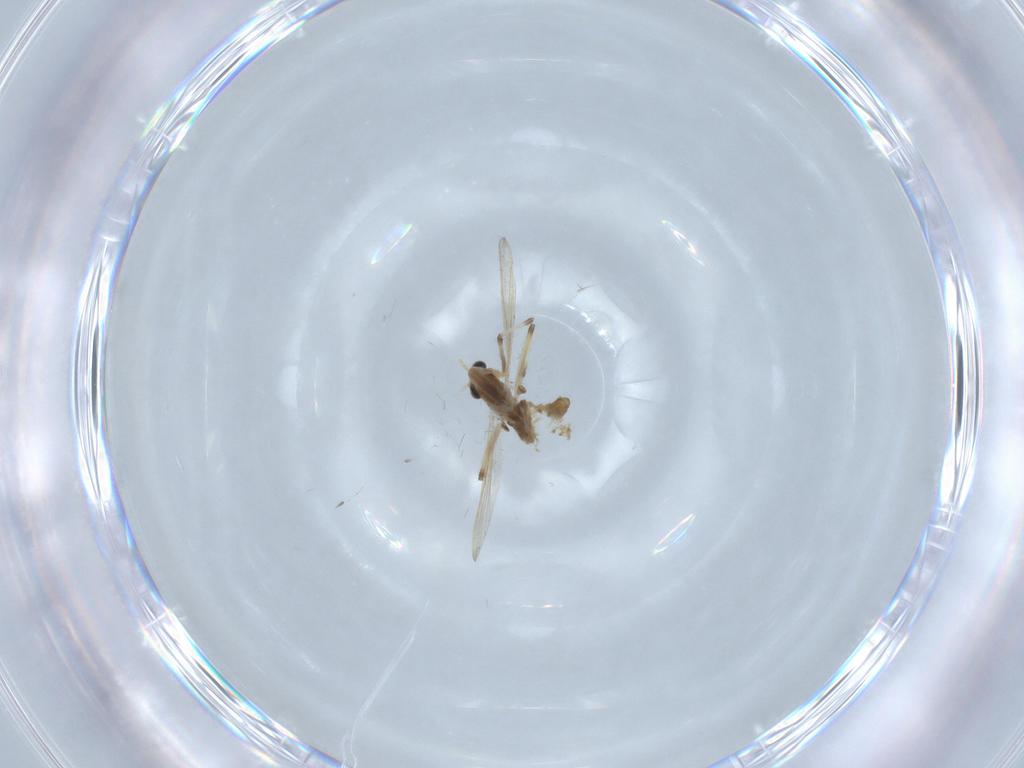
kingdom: Animalia
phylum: Arthropoda
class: Insecta
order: Diptera
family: Chironomidae
